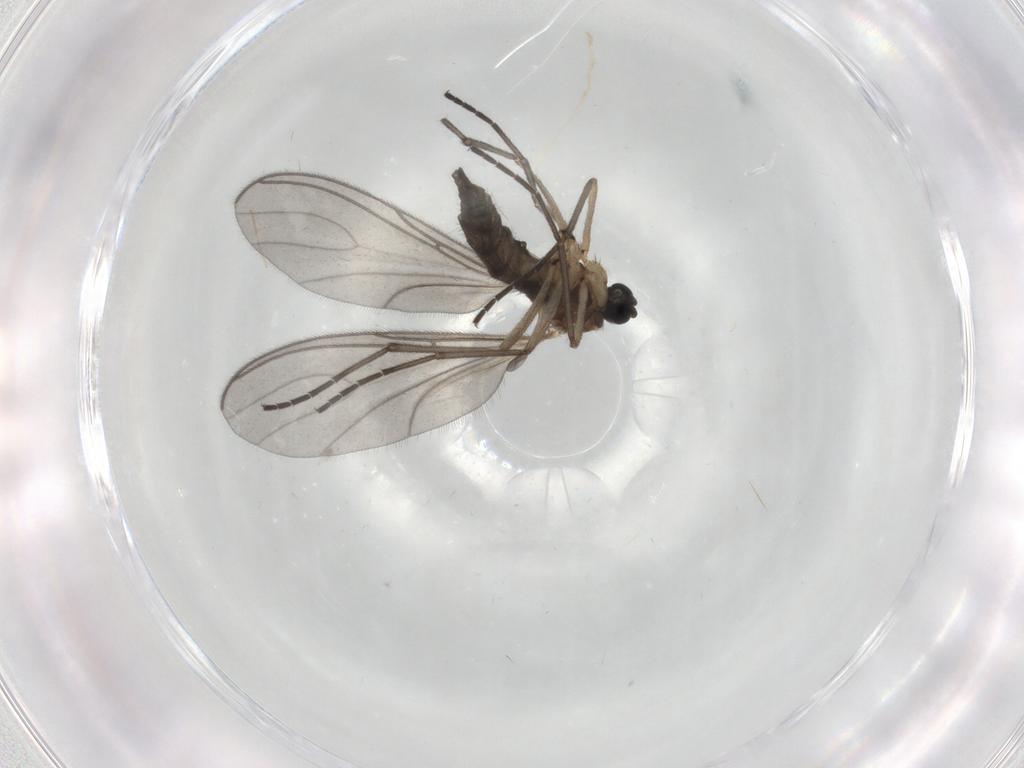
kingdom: Animalia
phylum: Arthropoda
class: Insecta
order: Diptera
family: Sciaridae
